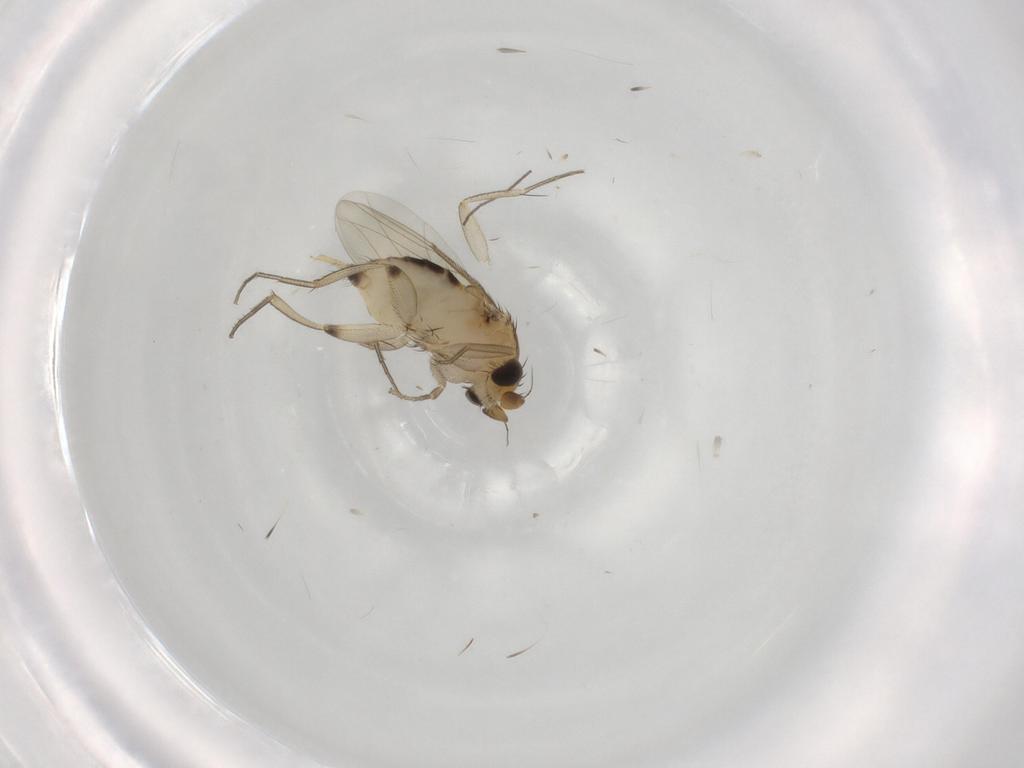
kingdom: Animalia
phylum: Arthropoda
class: Insecta
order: Diptera
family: Phoridae
